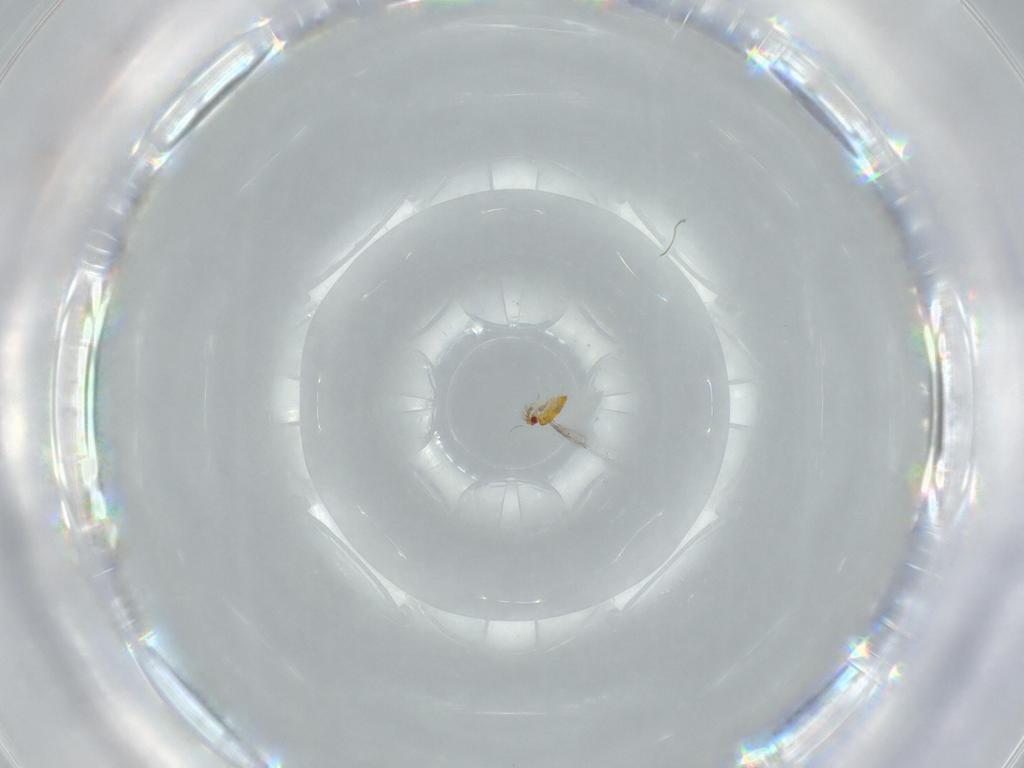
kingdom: Animalia
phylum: Arthropoda
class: Insecta
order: Hymenoptera
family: Trichogrammatidae
